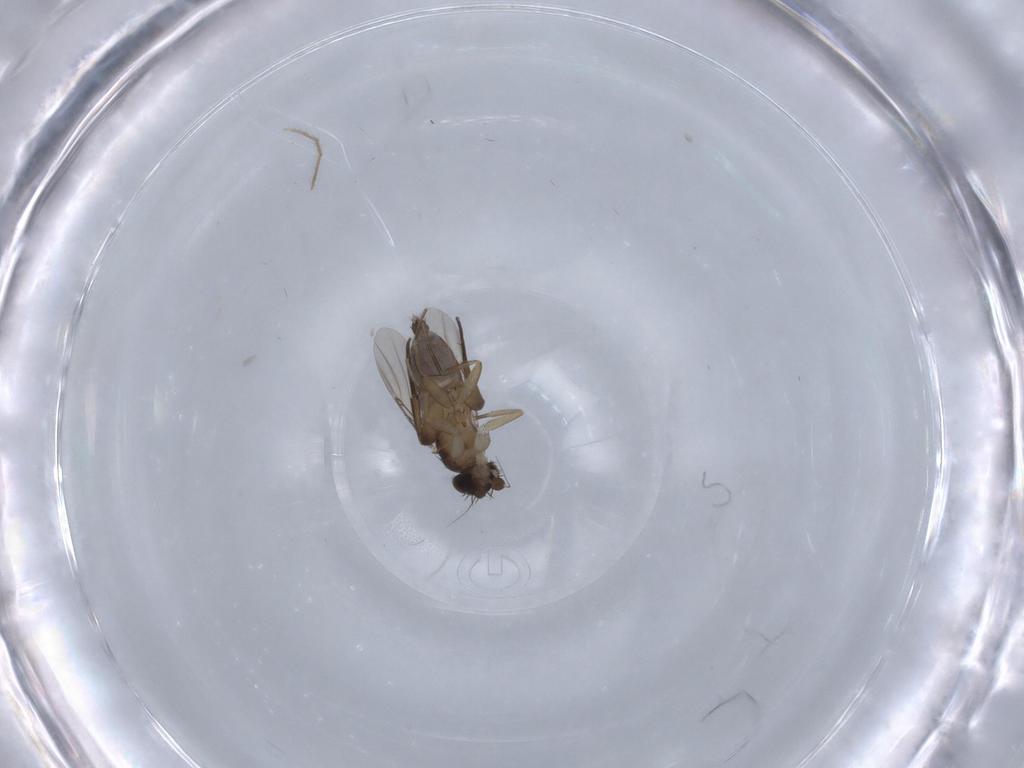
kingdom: Animalia
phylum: Arthropoda
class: Insecta
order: Diptera
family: Phoridae
